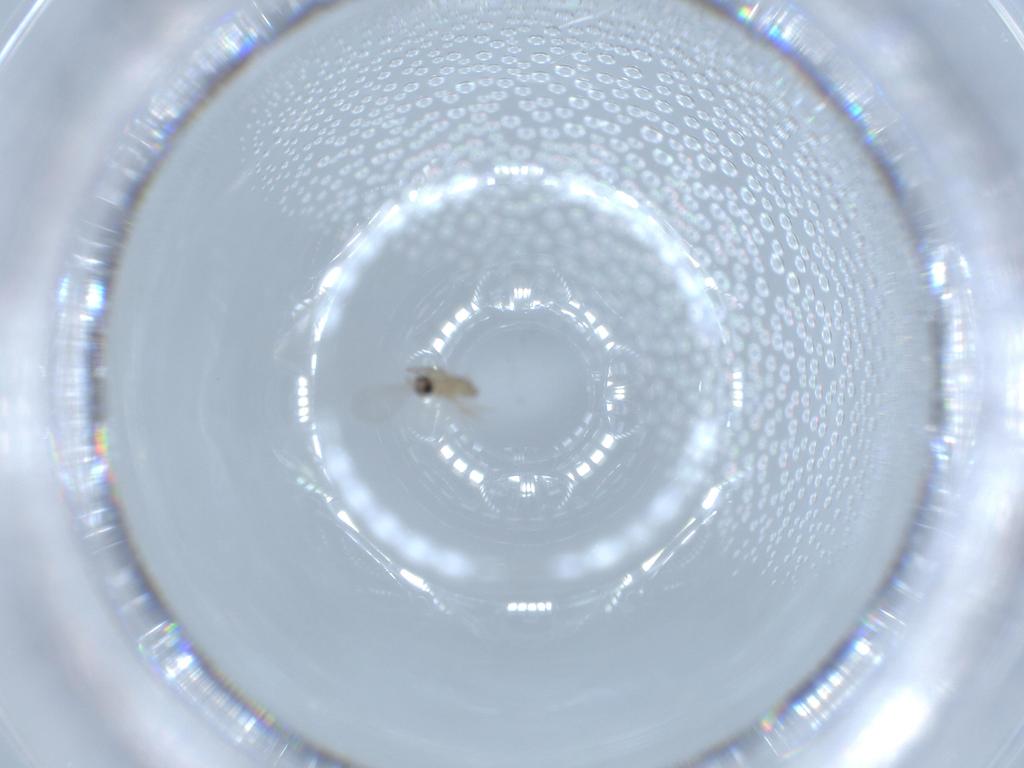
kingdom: Animalia
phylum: Arthropoda
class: Insecta
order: Diptera
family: Cecidomyiidae
